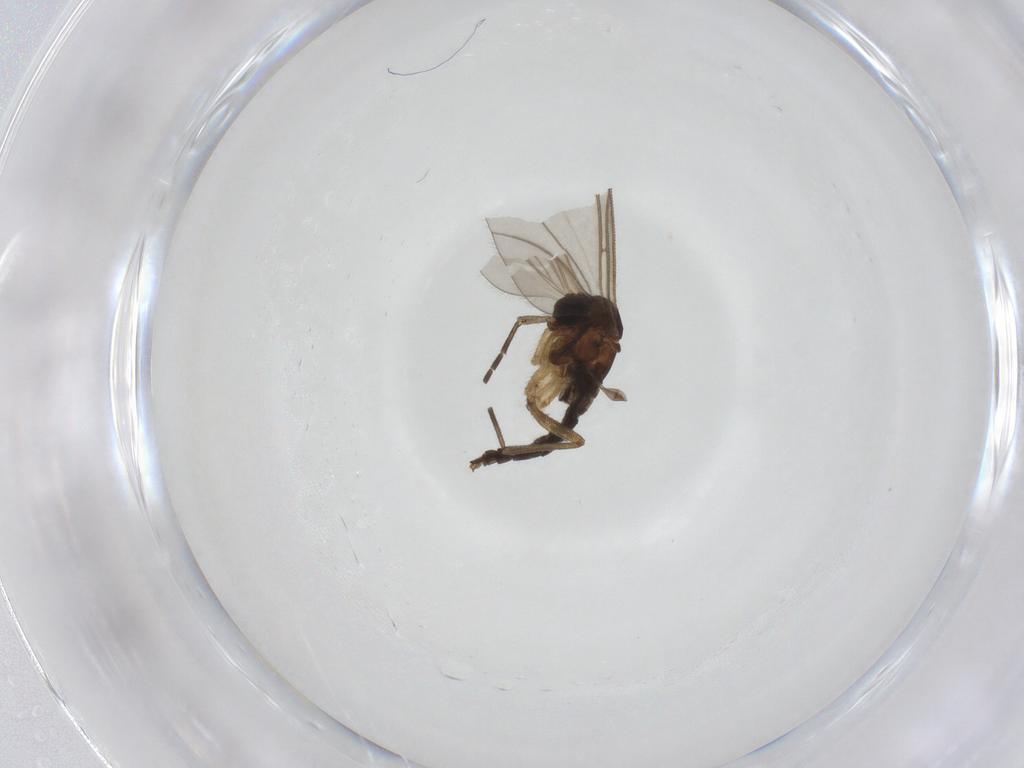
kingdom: Animalia
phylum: Arthropoda
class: Insecta
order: Diptera
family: Sciaridae
